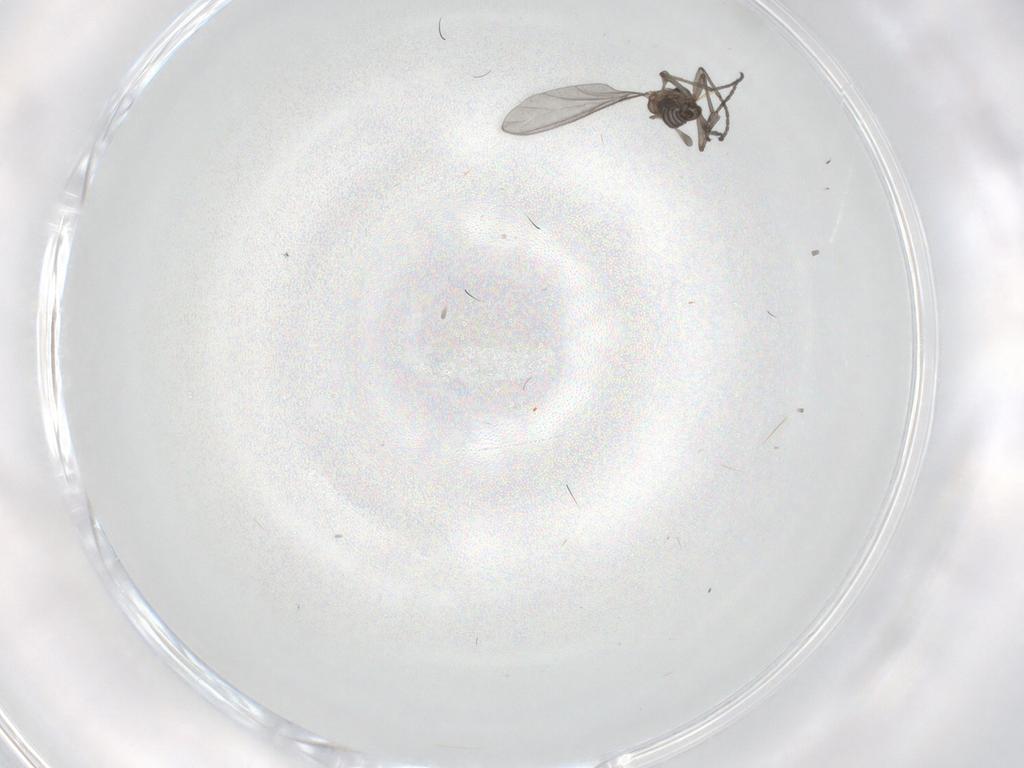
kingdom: Animalia
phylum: Arthropoda
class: Insecta
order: Diptera
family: Sciaridae
